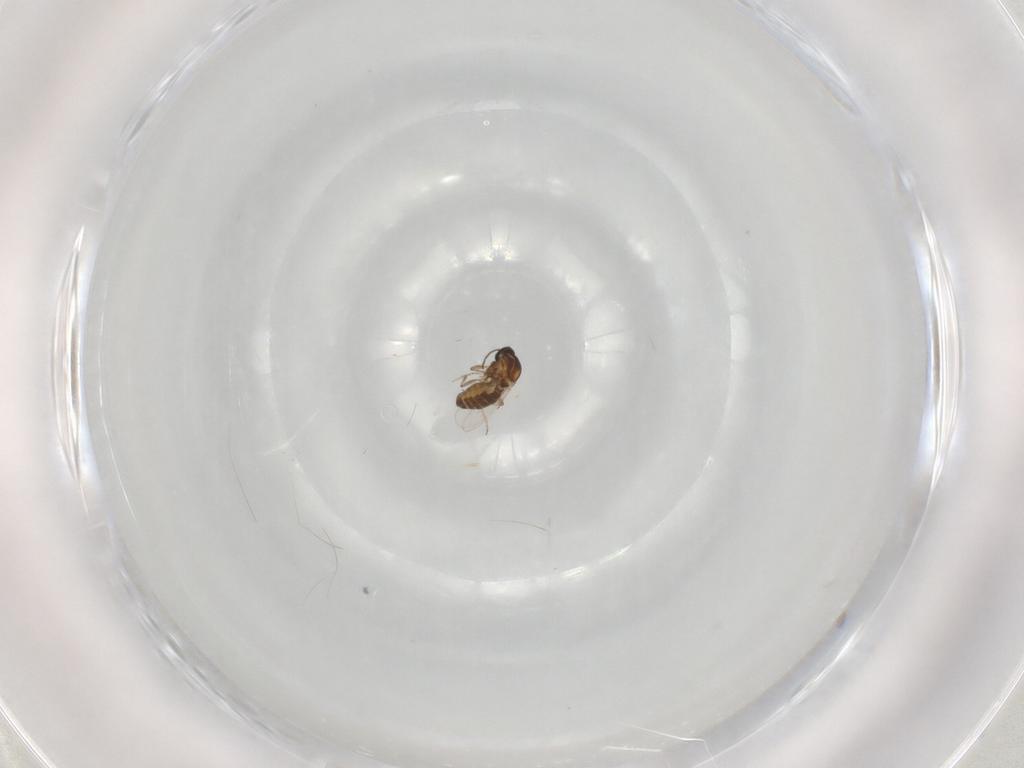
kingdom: Animalia
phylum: Arthropoda
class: Insecta
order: Diptera
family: Ceratopogonidae
